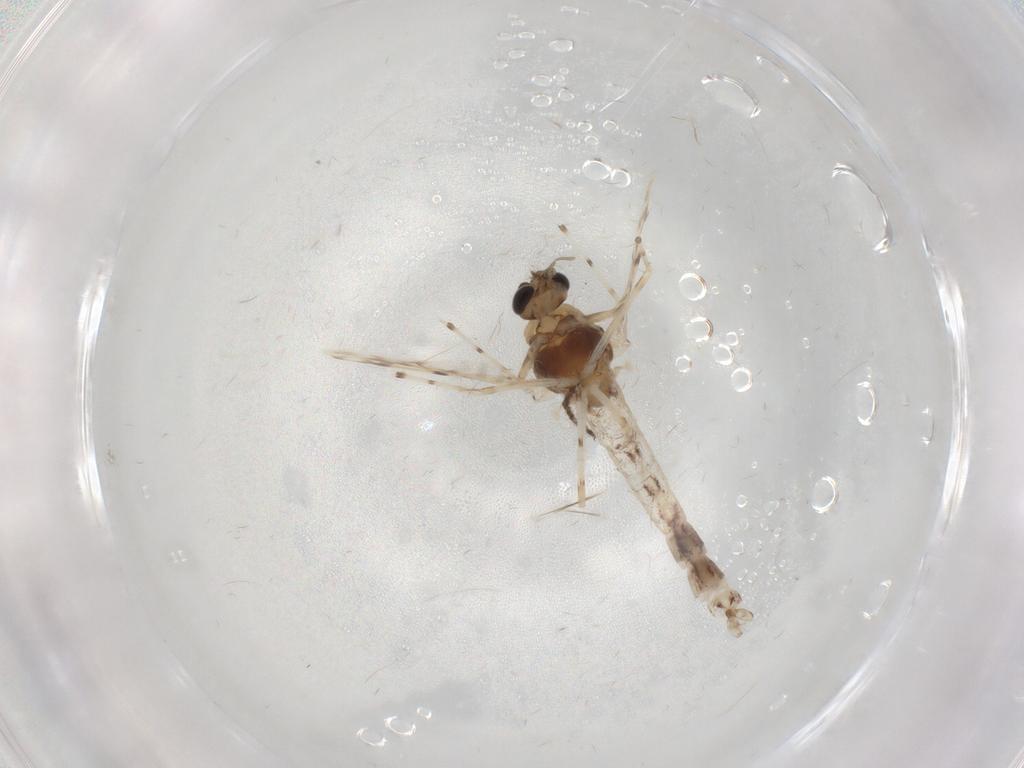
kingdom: Animalia
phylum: Arthropoda
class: Insecta
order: Diptera
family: Chironomidae
